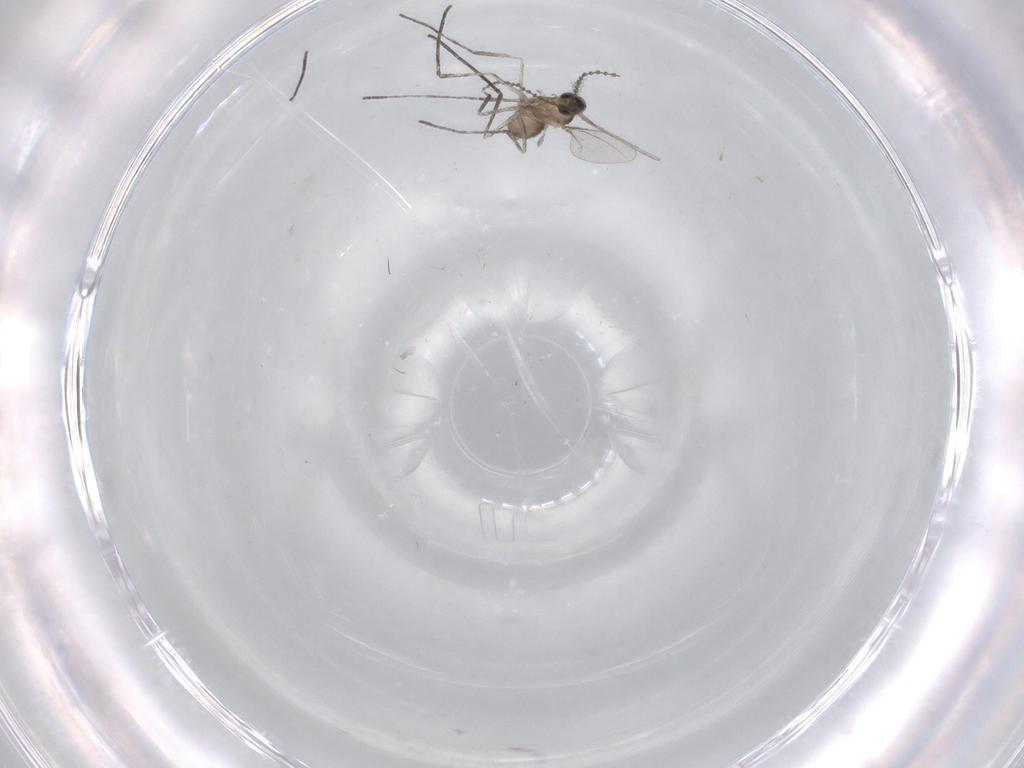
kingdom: Animalia
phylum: Arthropoda
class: Insecta
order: Diptera
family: Cecidomyiidae
